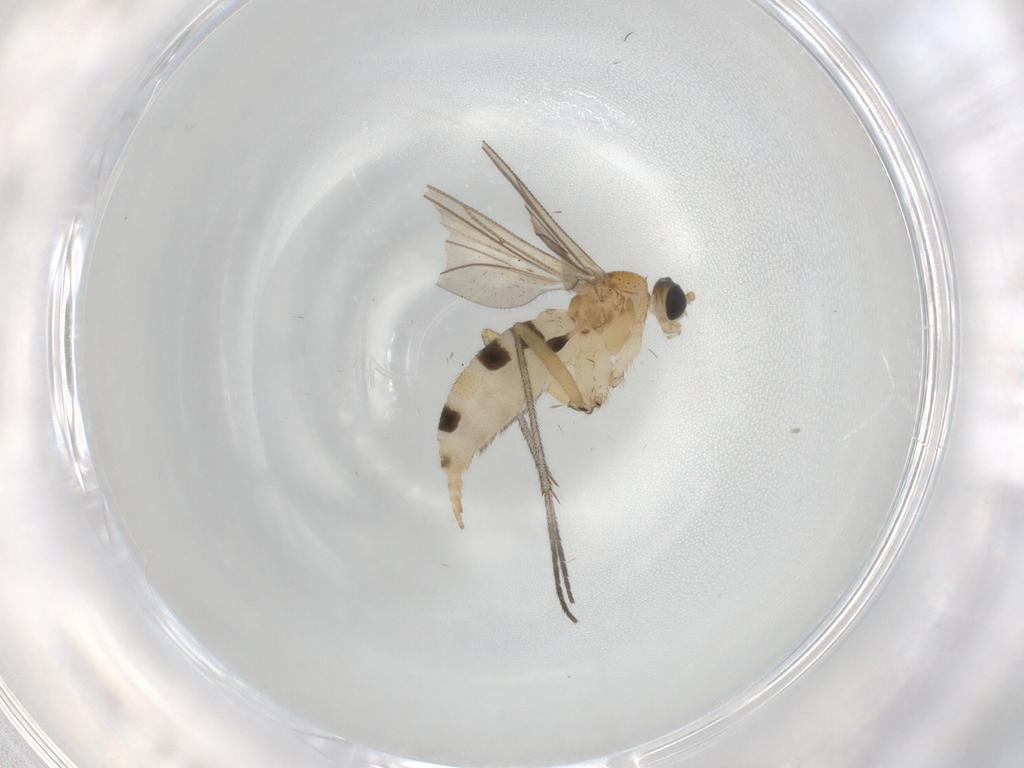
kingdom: Animalia
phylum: Arthropoda
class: Insecta
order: Diptera
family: Sciaridae
